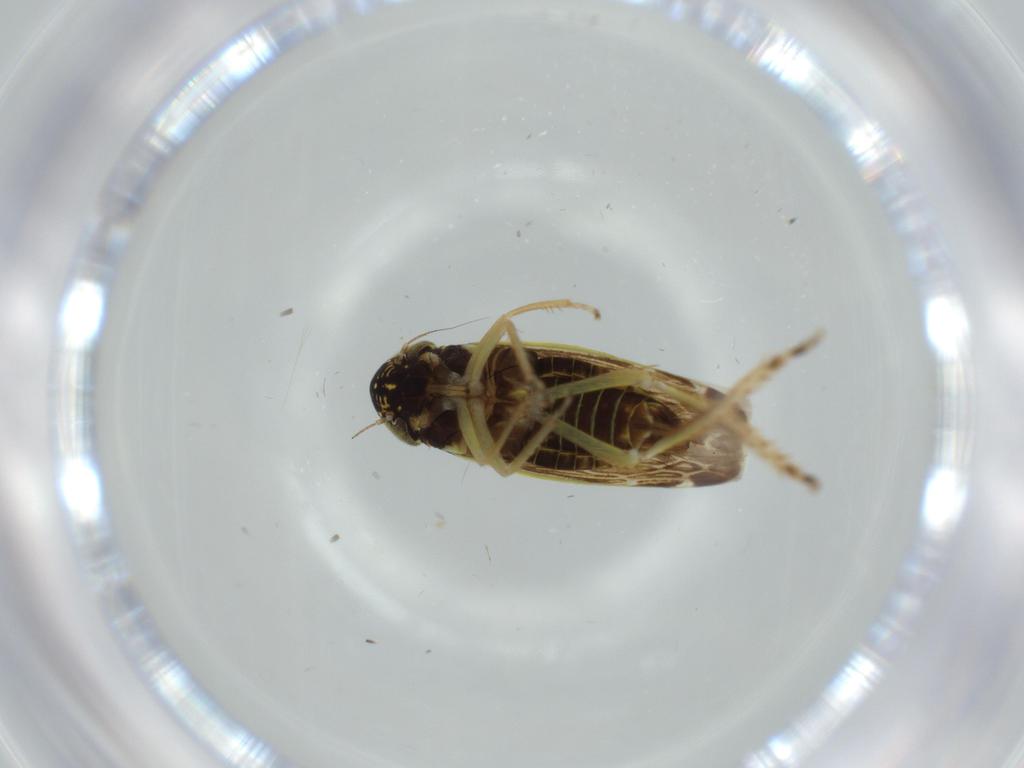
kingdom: Animalia
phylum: Arthropoda
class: Insecta
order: Hemiptera
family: Cicadellidae
